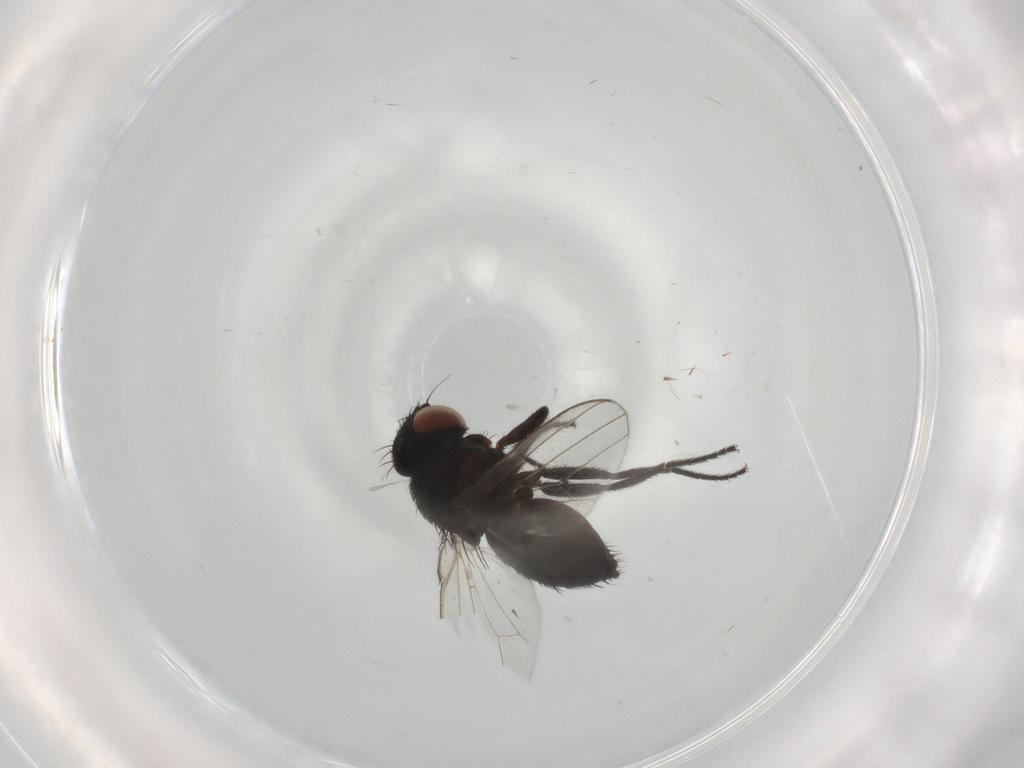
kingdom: Animalia
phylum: Arthropoda
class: Insecta
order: Diptera
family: Milichiidae
